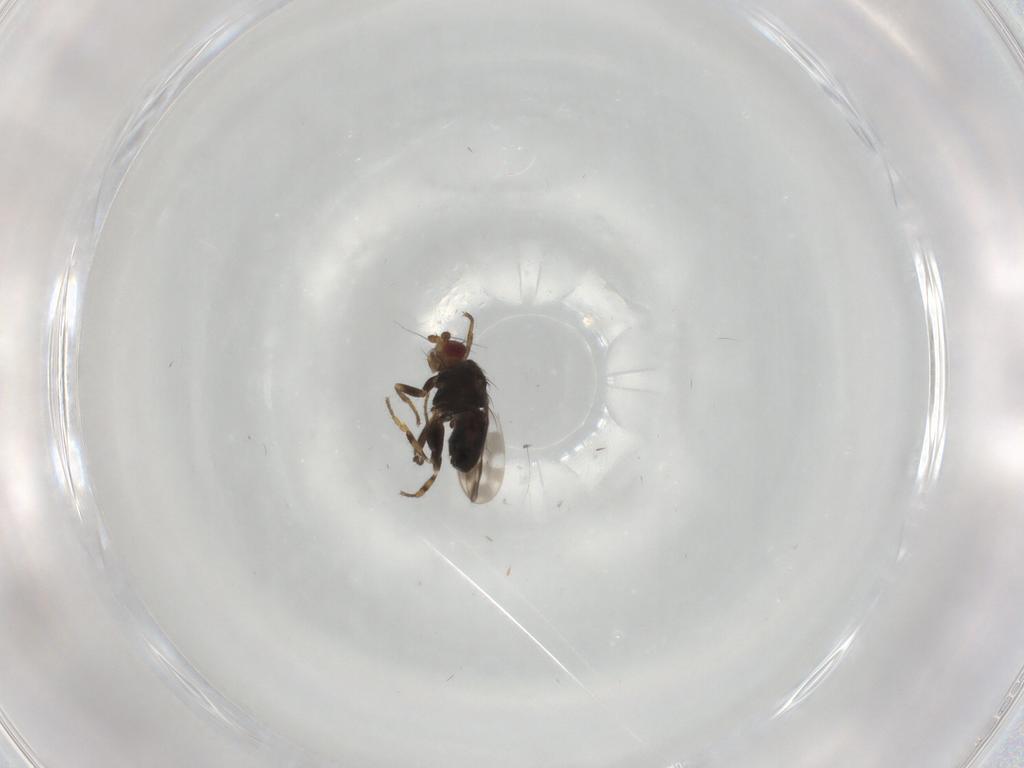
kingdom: Animalia
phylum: Arthropoda
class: Insecta
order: Diptera
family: Sphaeroceridae
